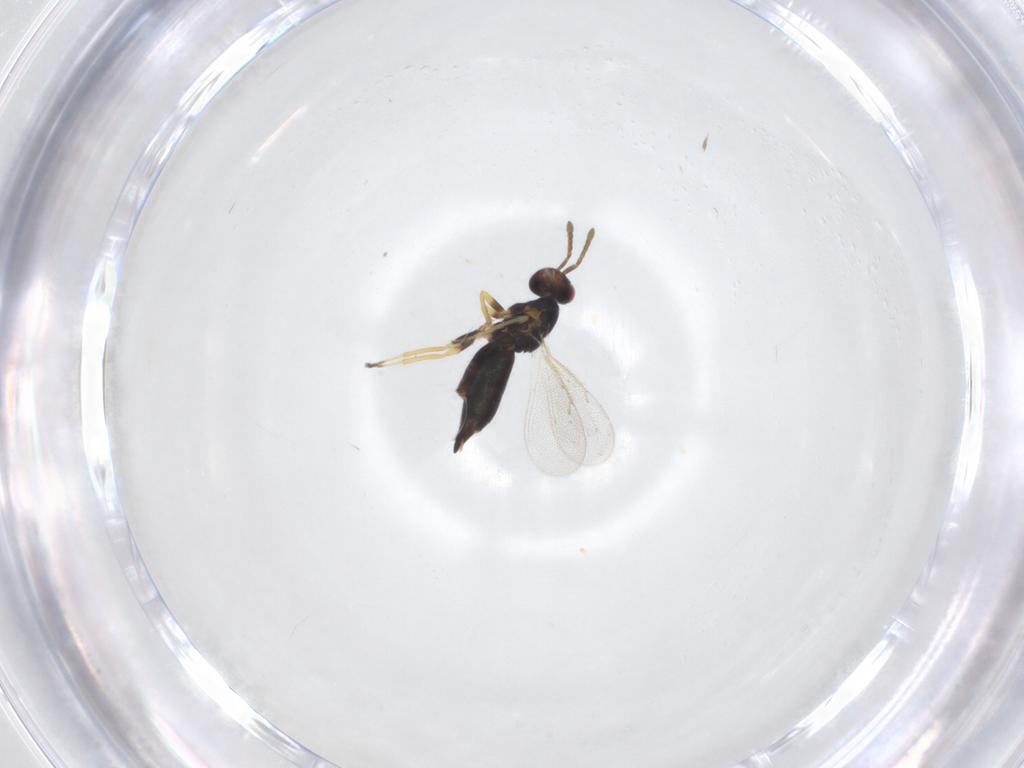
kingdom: Animalia
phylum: Arthropoda
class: Insecta
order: Hymenoptera
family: Eulophidae
